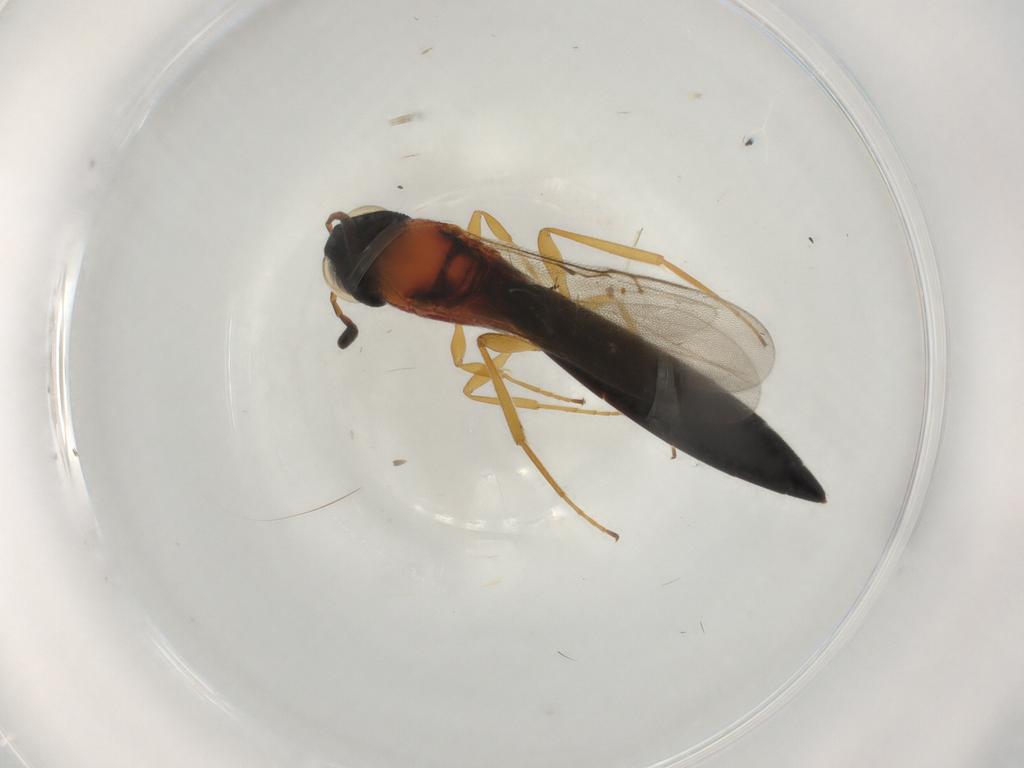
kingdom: Animalia
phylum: Arthropoda
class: Insecta
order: Hymenoptera
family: Scelionidae
